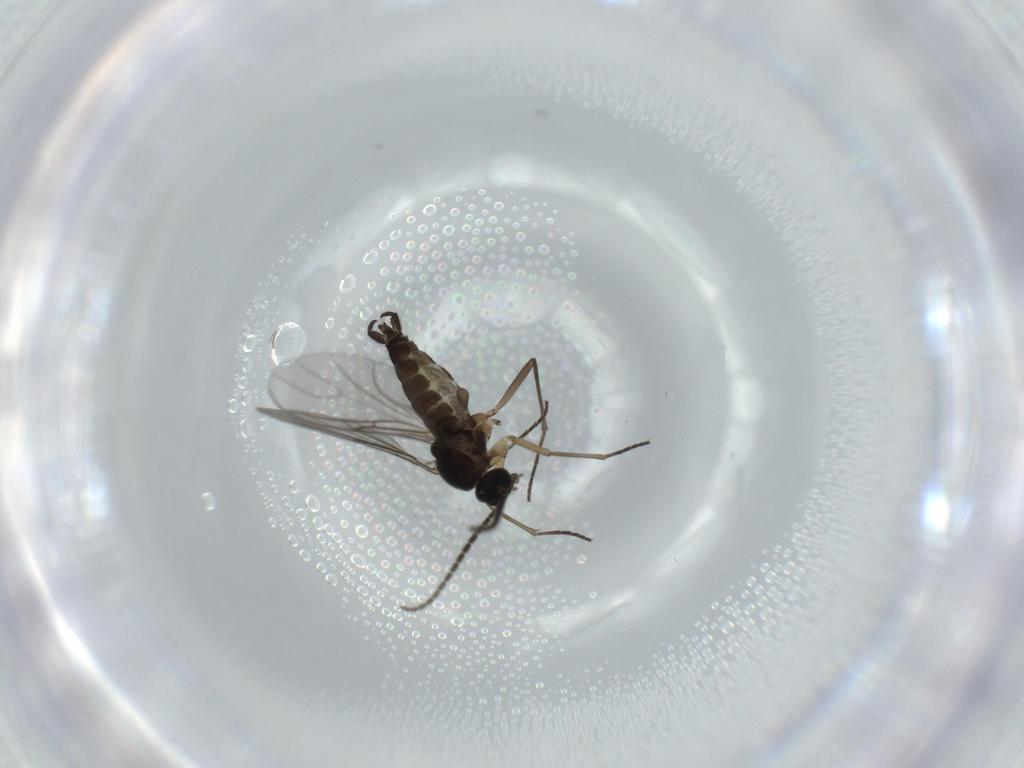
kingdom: Animalia
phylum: Arthropoda
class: Insecta
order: Diptera
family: Sciaridae
